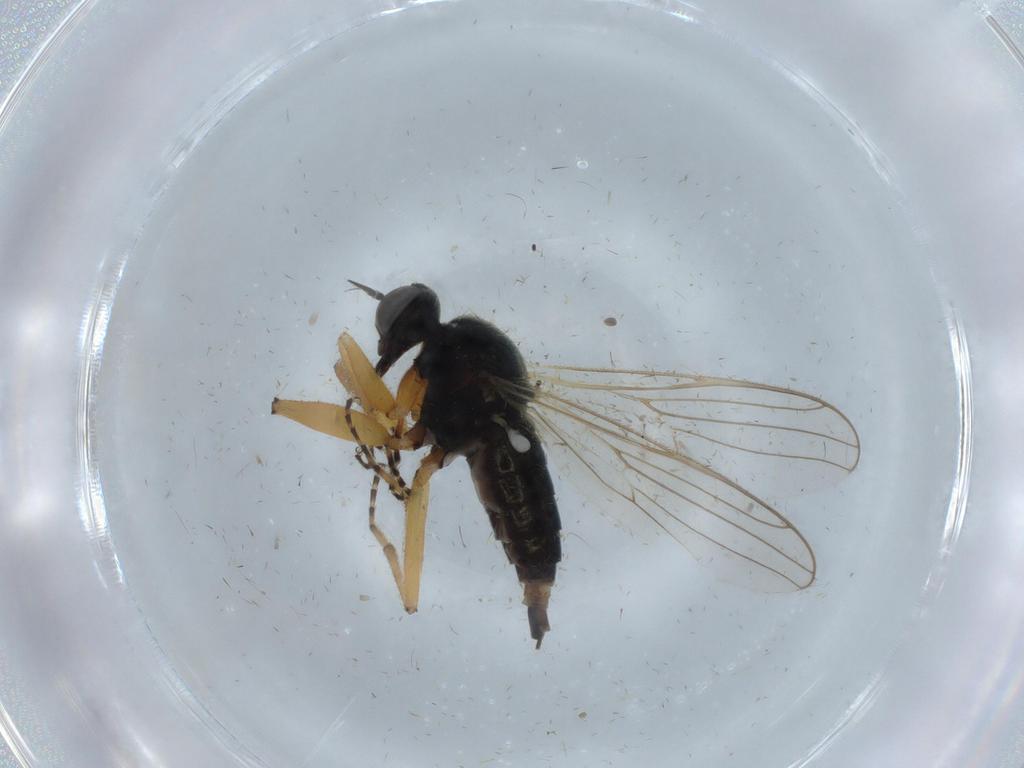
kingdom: Animalia
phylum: Arthropoda
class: Insecta
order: Diptera
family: Hybotidae
